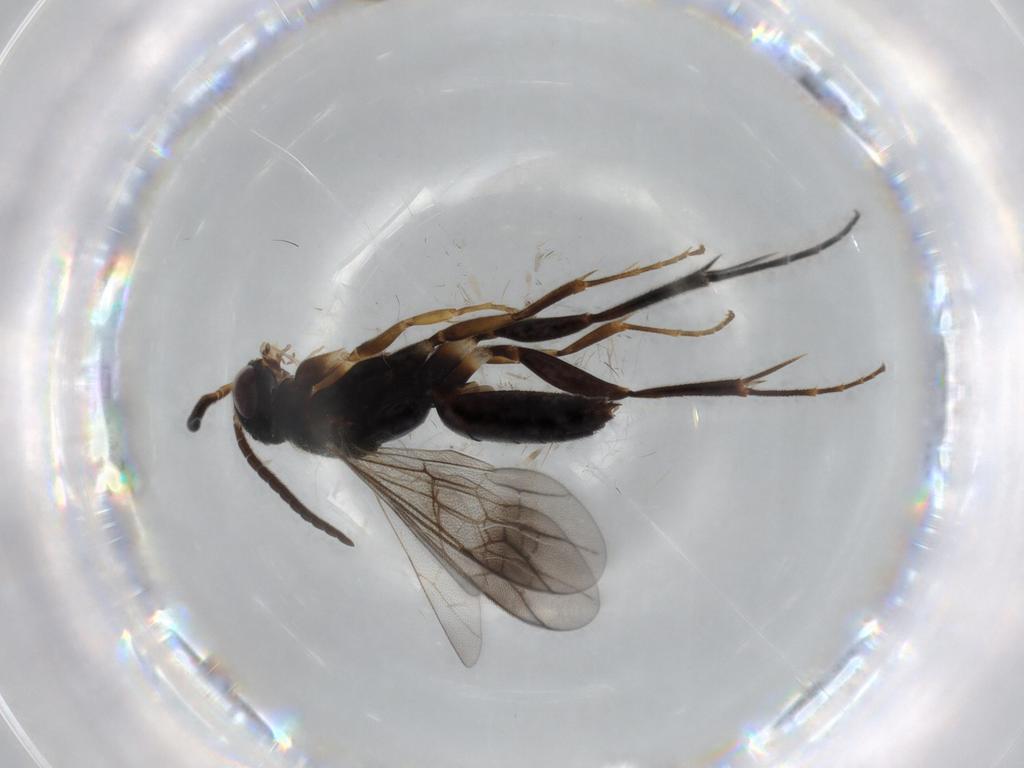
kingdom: Animalia
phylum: Arthropoda
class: Insecta
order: Hymenoptera
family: Pompilidae
